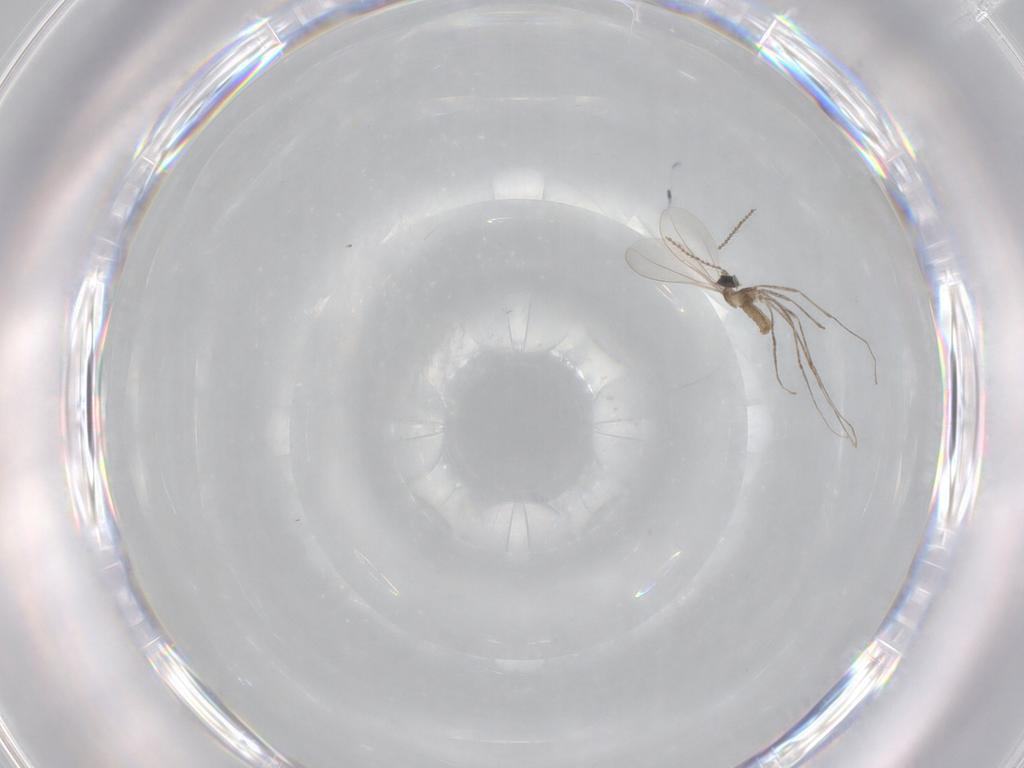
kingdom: Animalia
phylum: Arthropoda
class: Insecta
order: Diptera
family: Cecidomyiidae
